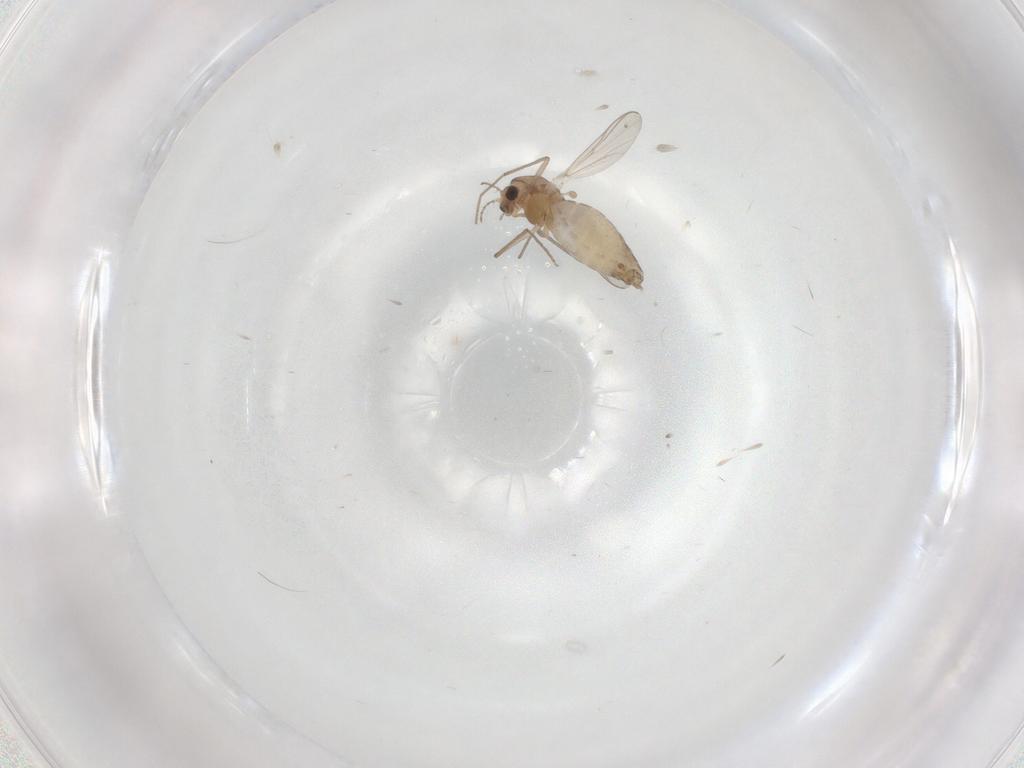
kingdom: Animalia
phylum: Arthropoda
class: Insecta
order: Diptera
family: Chironomidae
